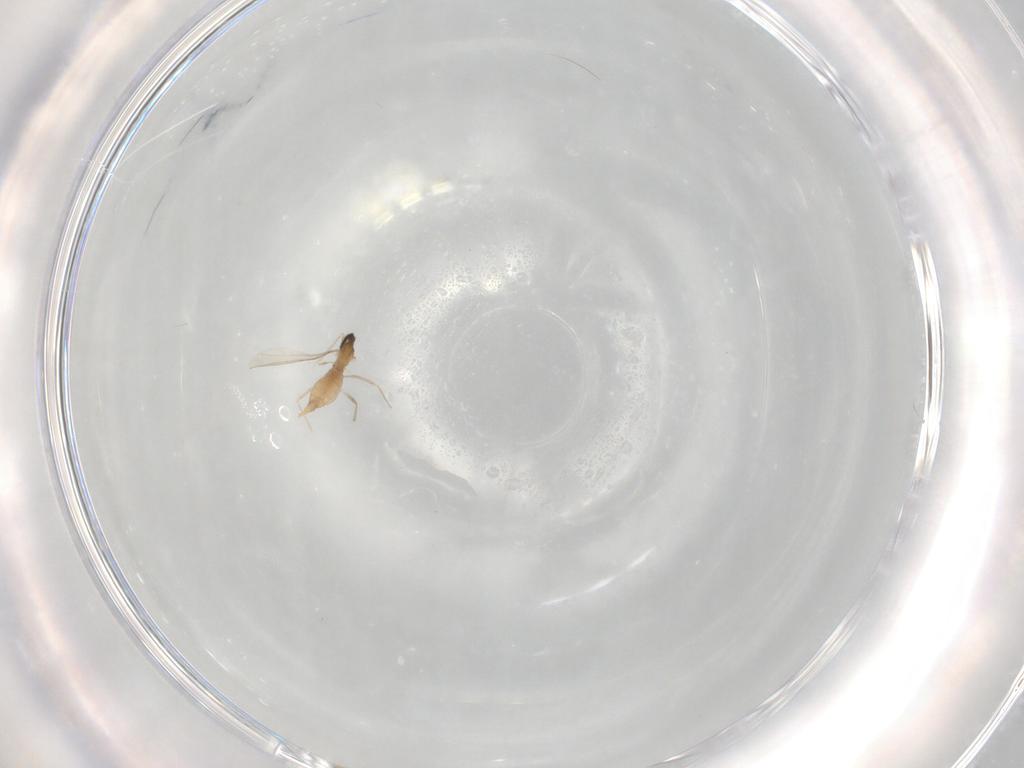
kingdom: Animalia
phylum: Arthropoda
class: Insecta
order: Diptera
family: Cecidomyiidae
